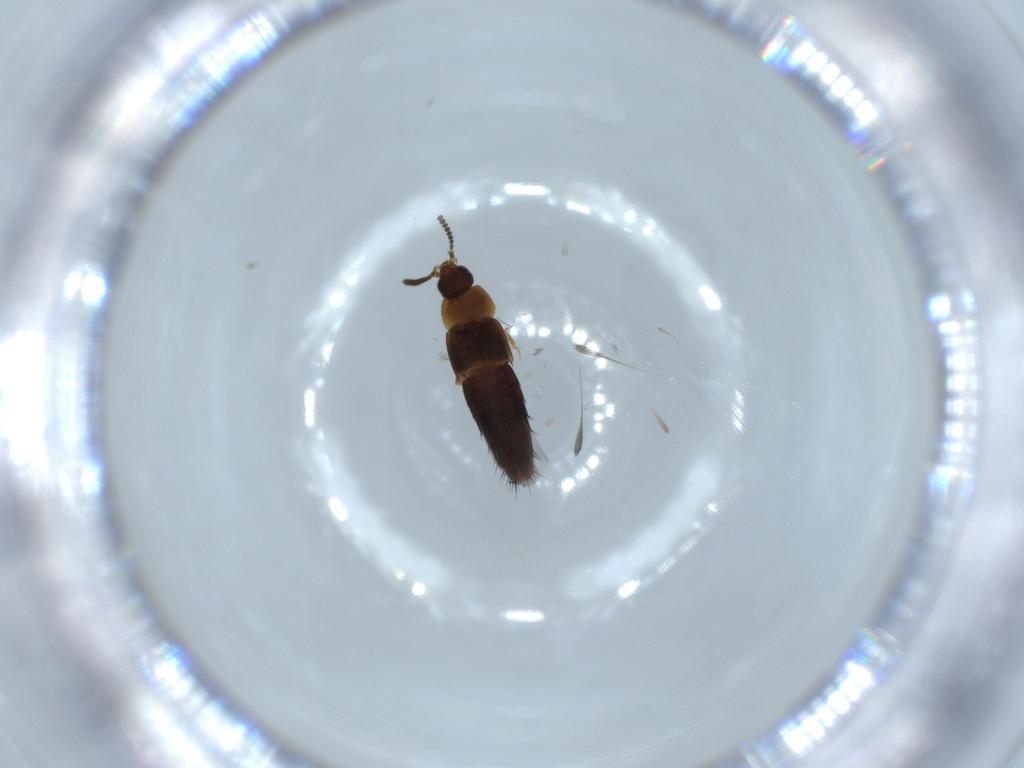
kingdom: Animalia
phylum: Arthropoda
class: Insecta
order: Coleoptera
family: Staphylinidae
